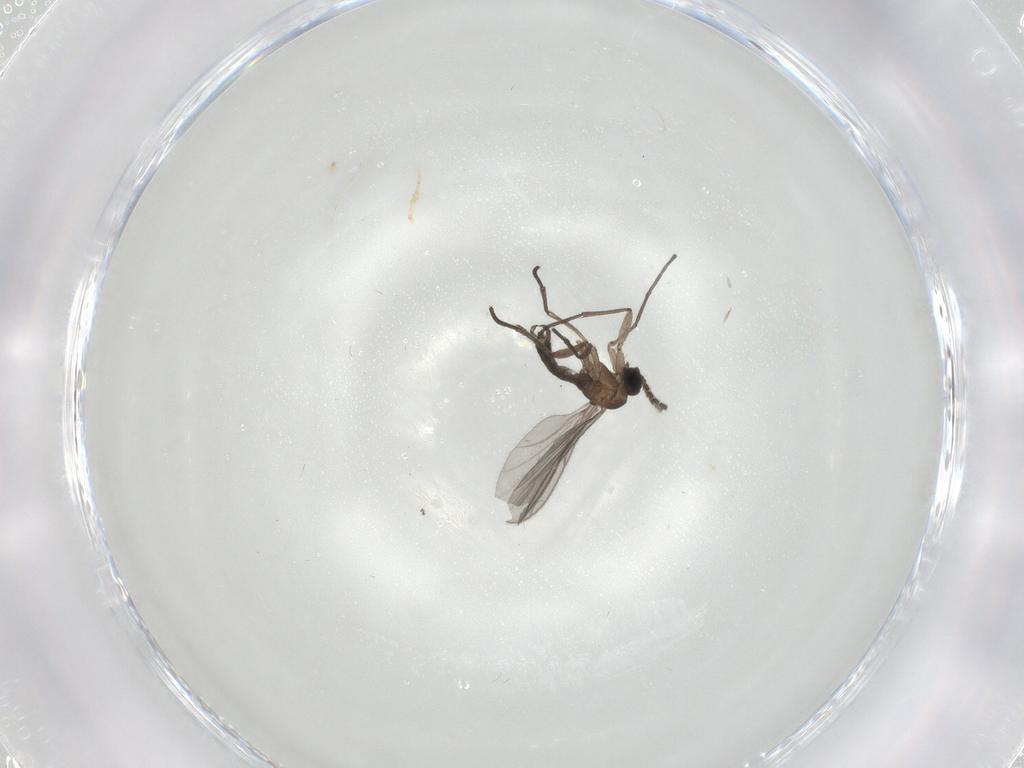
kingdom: Animalia
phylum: Arthropoda
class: Insecta
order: Diptera
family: Sciaridae
